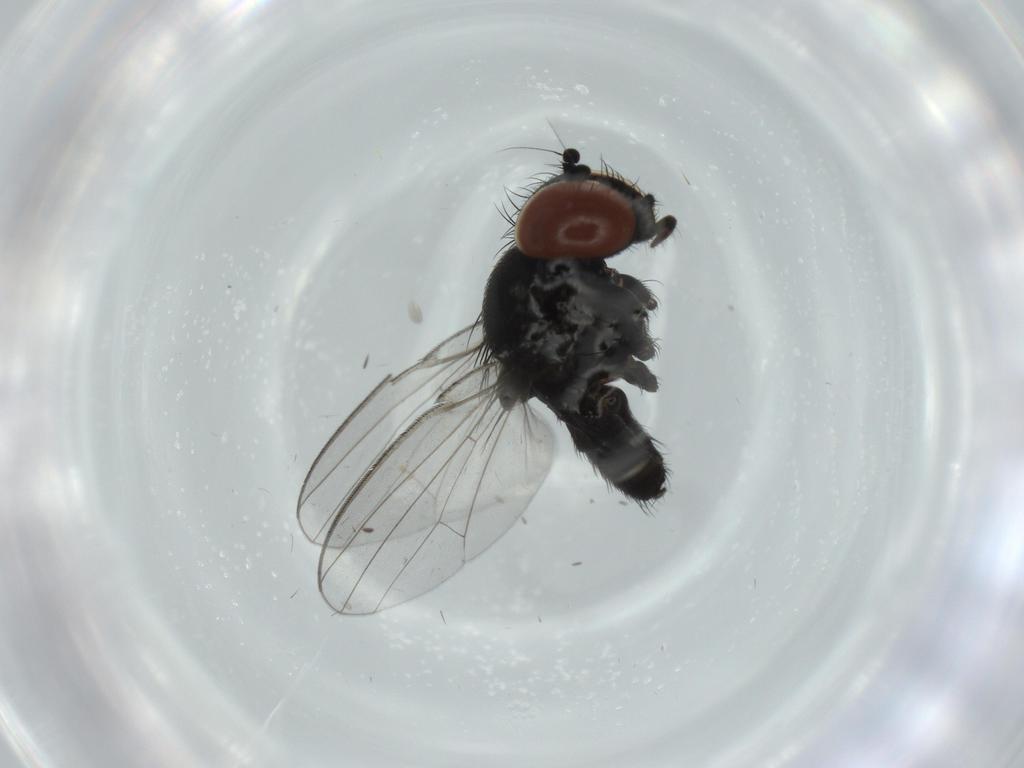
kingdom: Animalia
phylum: Arthropoda
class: Insecta
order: Diptera
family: Milichiidae
